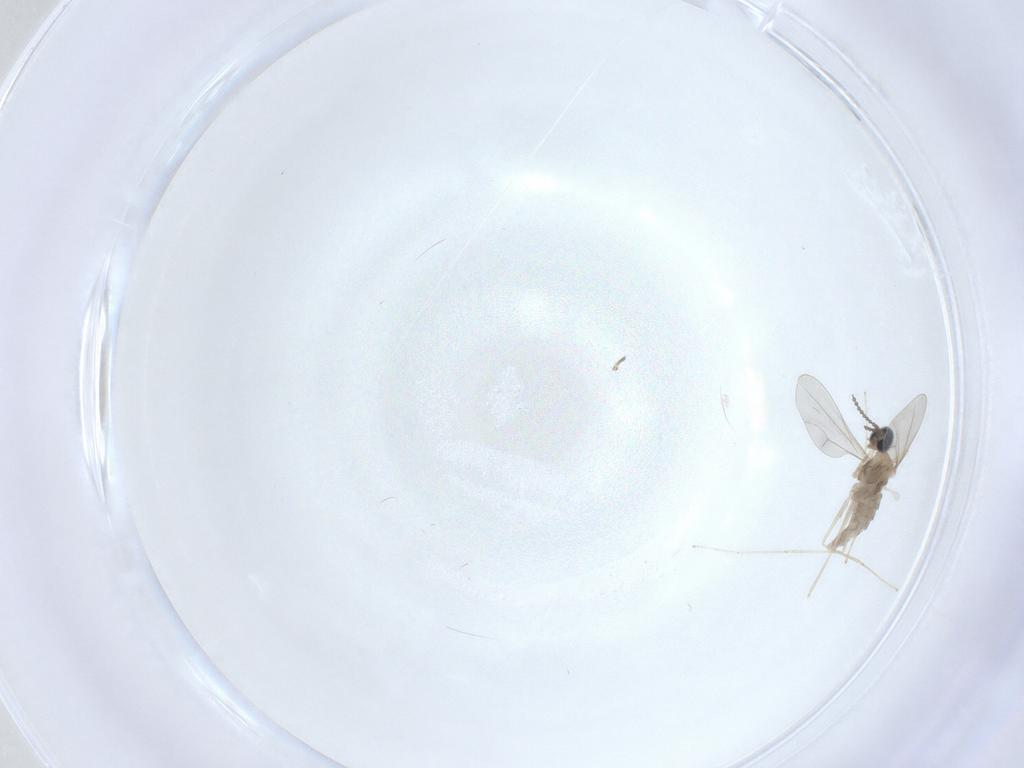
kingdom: Animalia
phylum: Arthropoda
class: Insecta
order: Diptera
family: Cecidomyiidae
